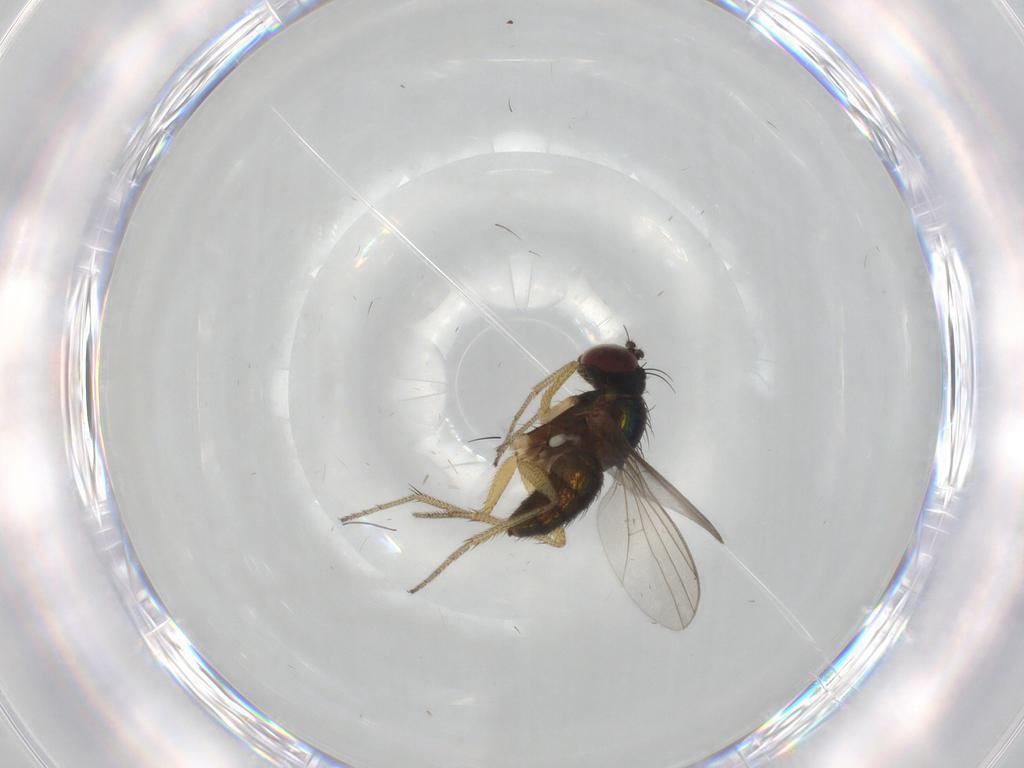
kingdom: Animalia
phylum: Arthropoda
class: Insecta
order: Diptera
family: Dolichopodidae
